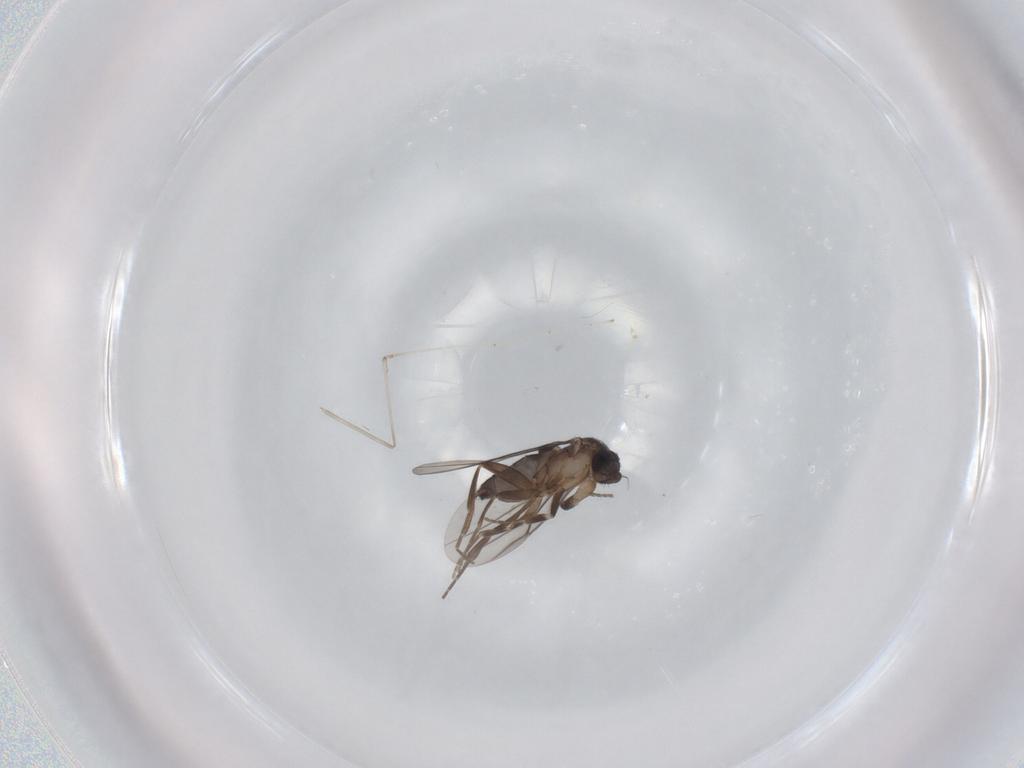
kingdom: Animalia
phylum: Arthropoda
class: Insecta
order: Diptera
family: Phoridae
